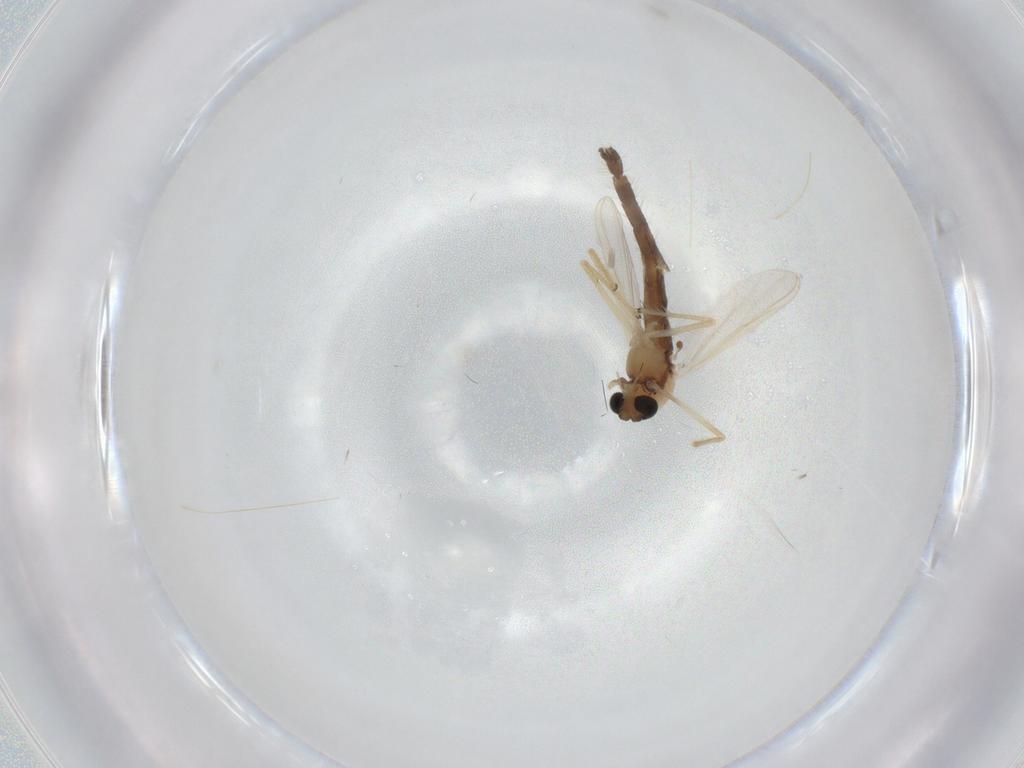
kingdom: Animalia
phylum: Arthropoda
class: Insecta
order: Diptera
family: Chironomidae
